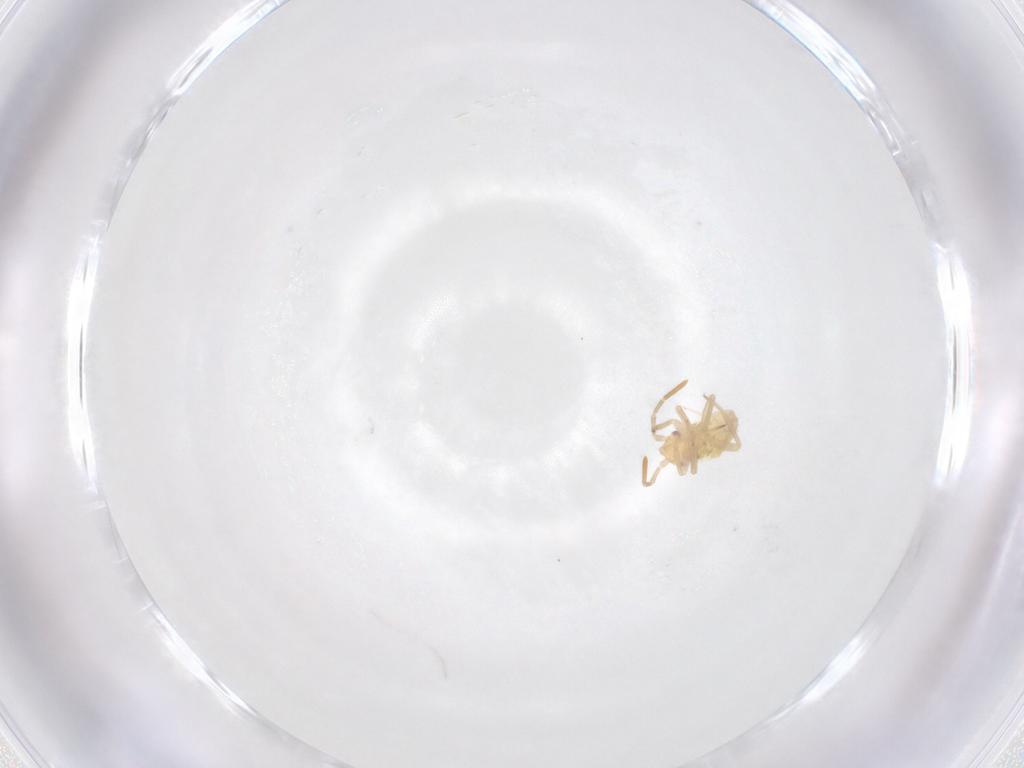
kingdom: Animalia
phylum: Arthropoda
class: Insecta
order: Hemiptera
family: Miridae
